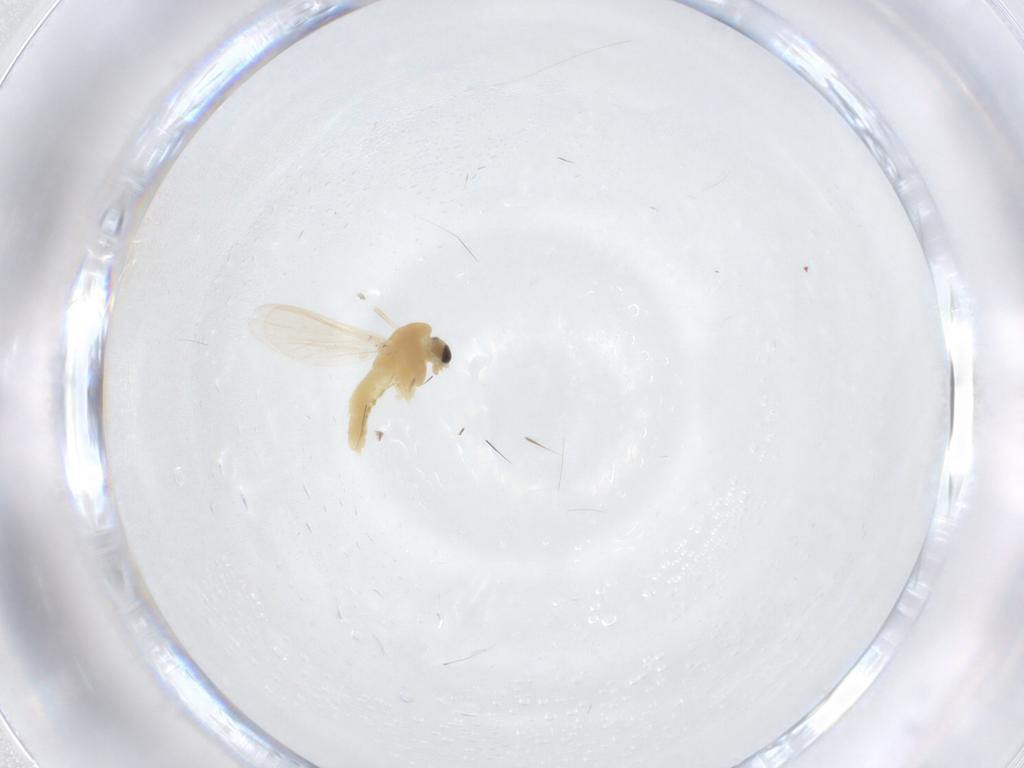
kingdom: Animalia
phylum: Arthropoda
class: Insecta
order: Diptera
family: Chironomidae
